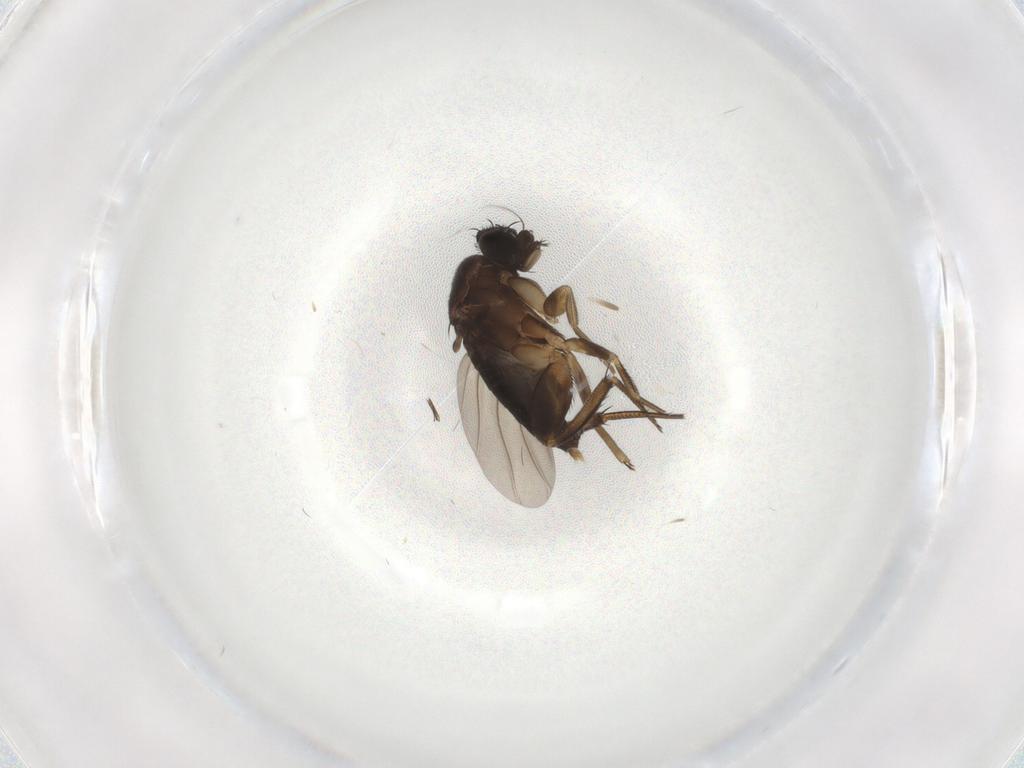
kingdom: Animalia
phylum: Arthropoda
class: Insecta
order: Diptera
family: Phoridae
